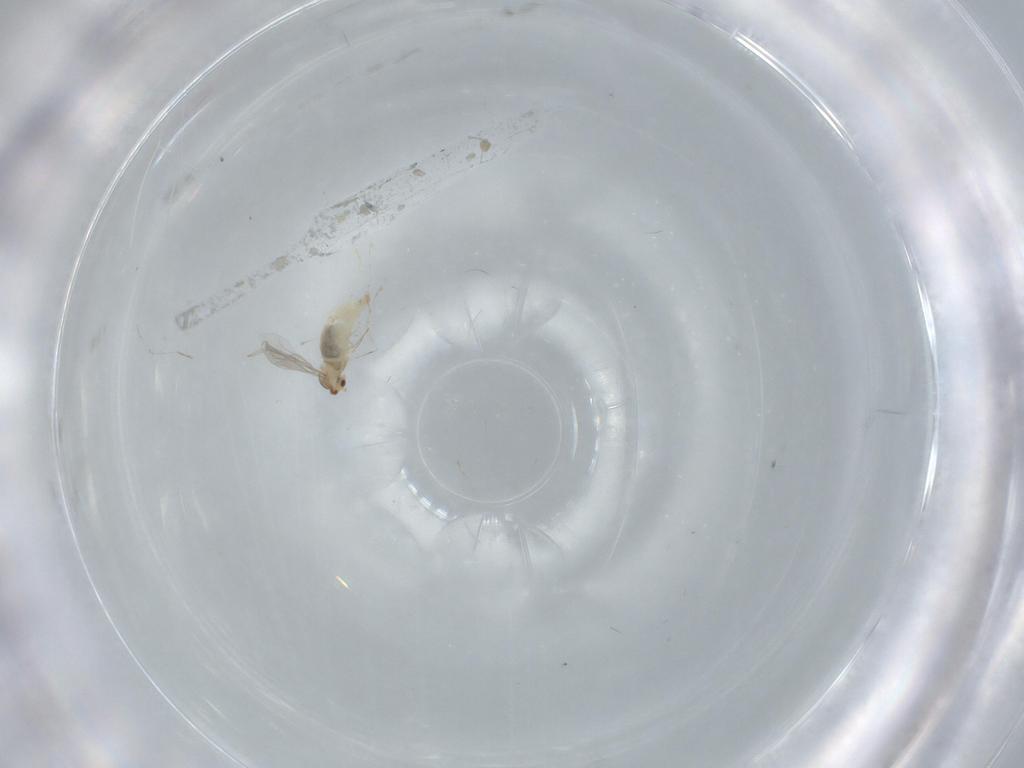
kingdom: Animalia
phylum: Arthropoda
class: Insecta
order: Diptera
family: Cecidomyiidae
